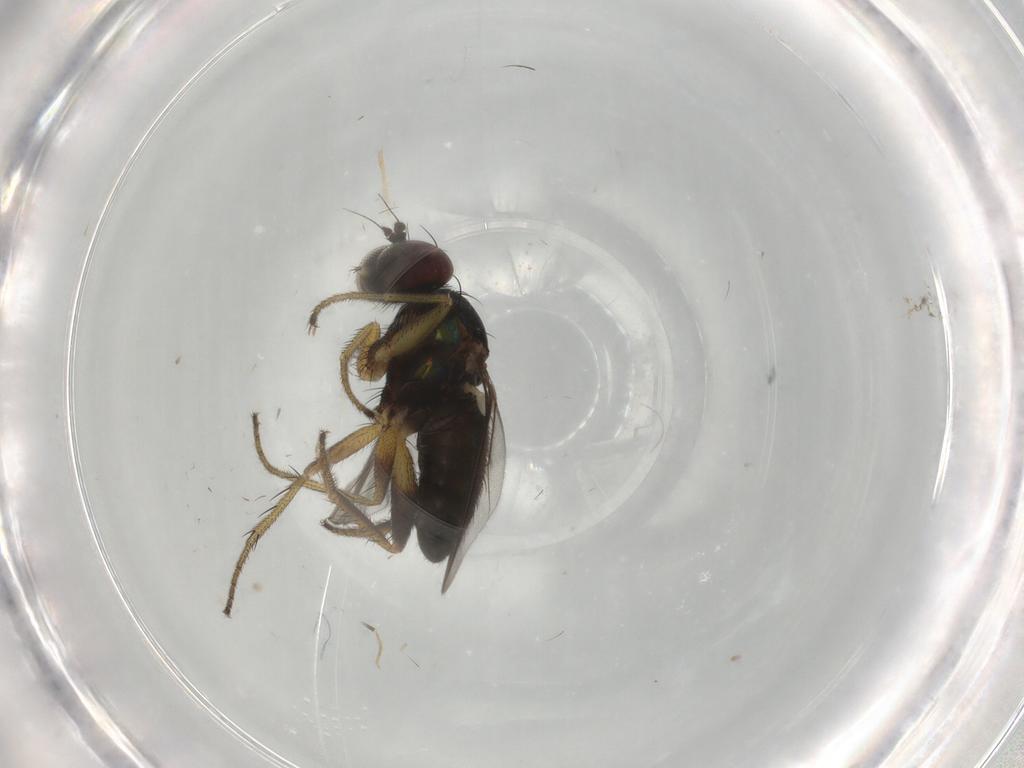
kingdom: Animalia
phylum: Arthropoda
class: Insecta
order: Diptera
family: Dolichopodidae
